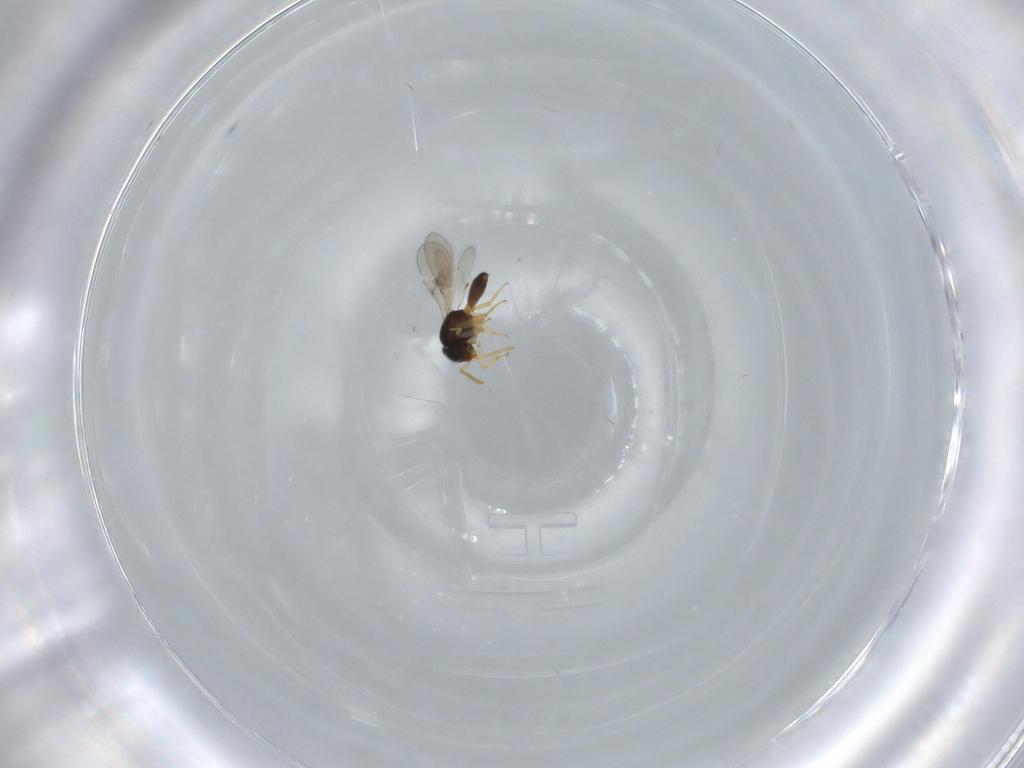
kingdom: Animalia
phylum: Arthropoda
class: Insecta
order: Hymenoptera
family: Scelionidae
